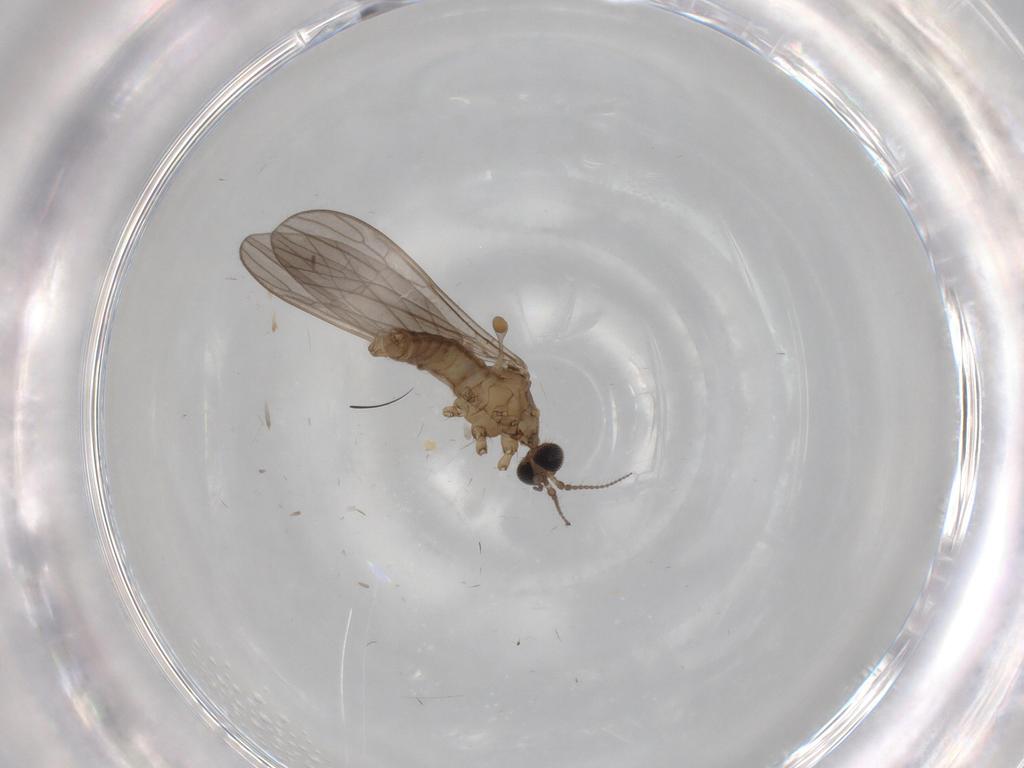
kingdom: Animalia
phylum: Arthropoda
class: Insecta
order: Diptera
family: Cecidomyiidae
